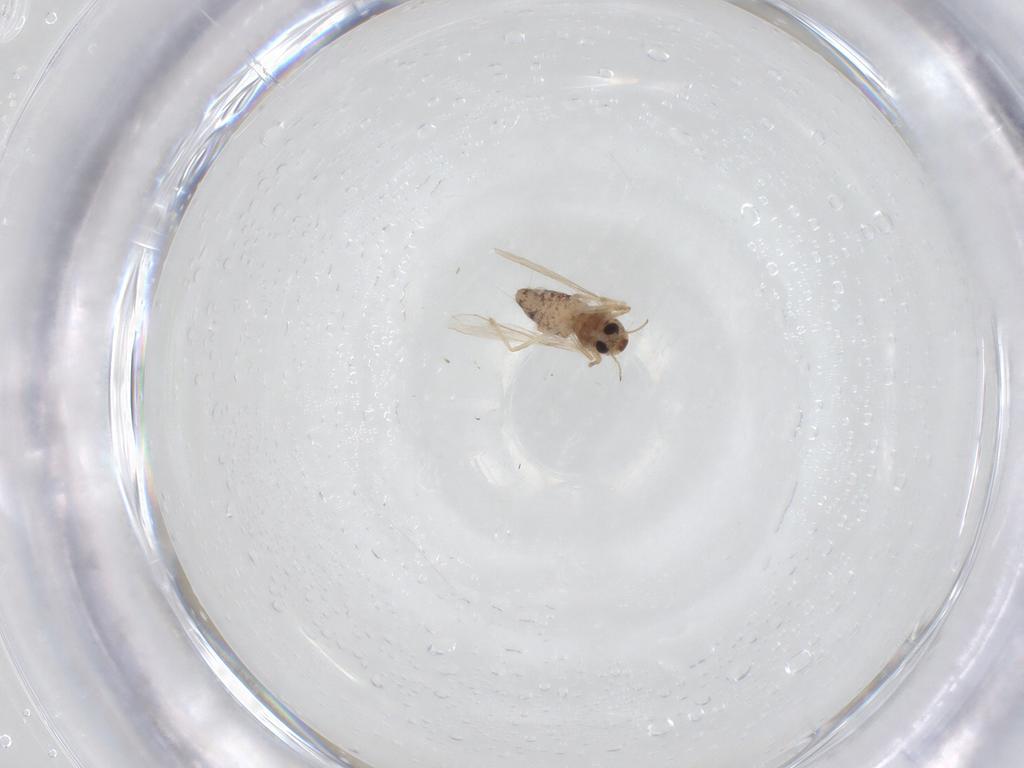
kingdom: Animalia
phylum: Arthropoda
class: Insecta
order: Diptera
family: Chironomidae
